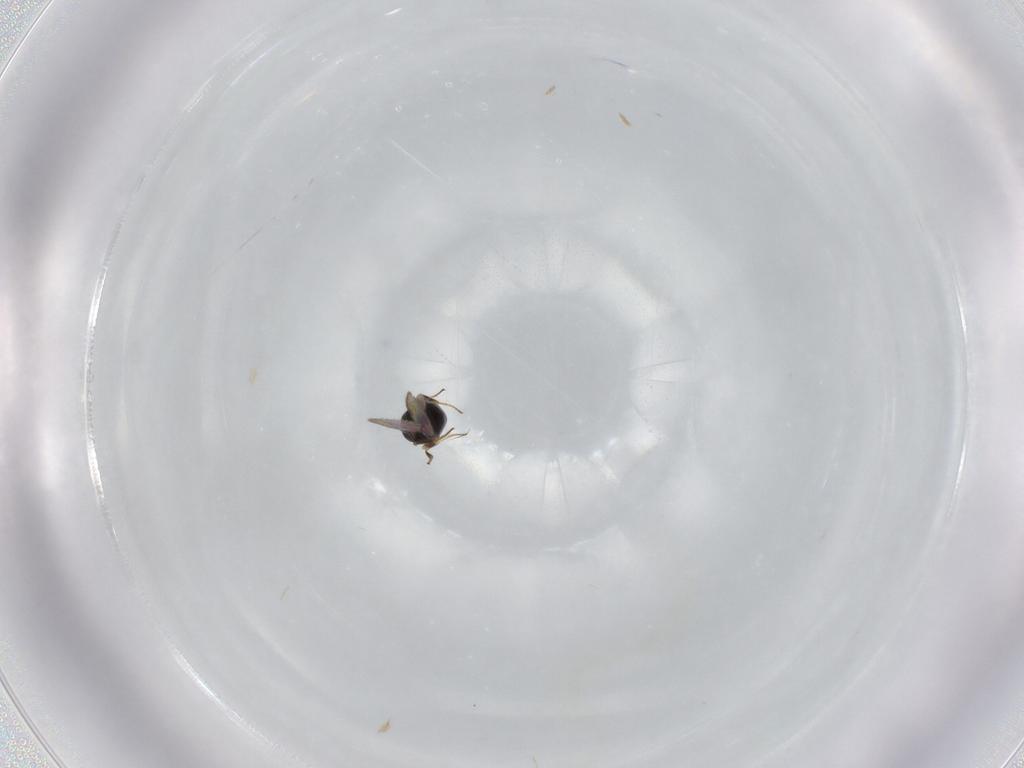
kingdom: Animalia
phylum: Arthropoda
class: Insecta
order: Hymenoptera
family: Scelionidae
